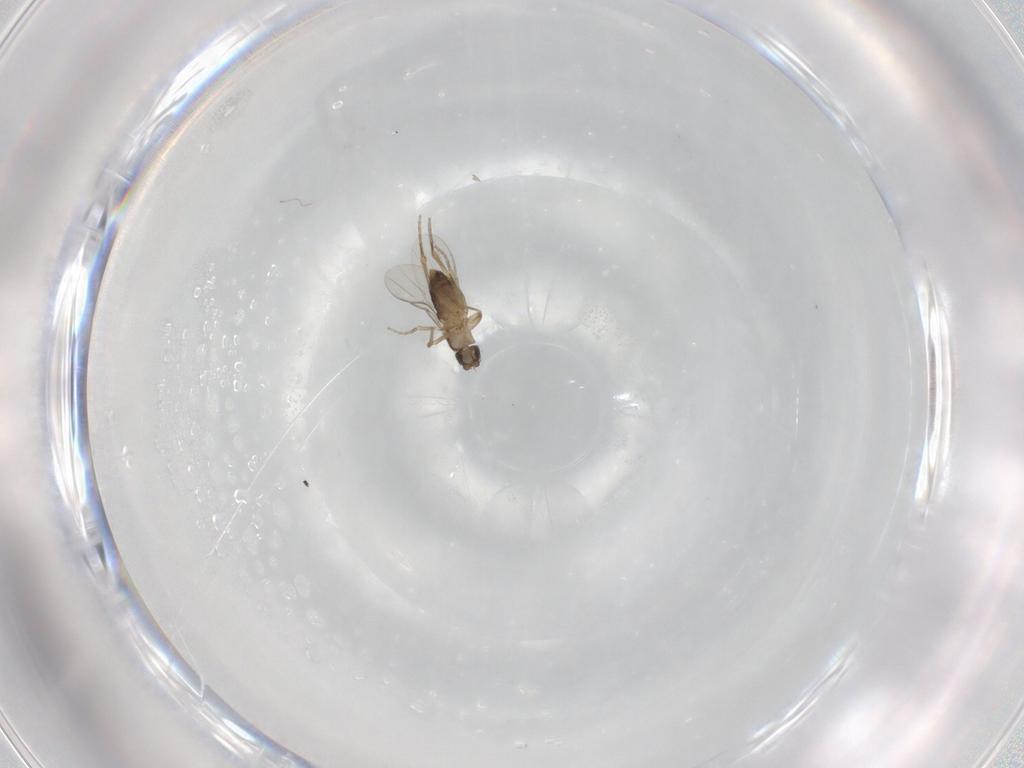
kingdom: Animalia
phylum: Arthropoda
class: Insecta
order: Diptera
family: Phoridae
